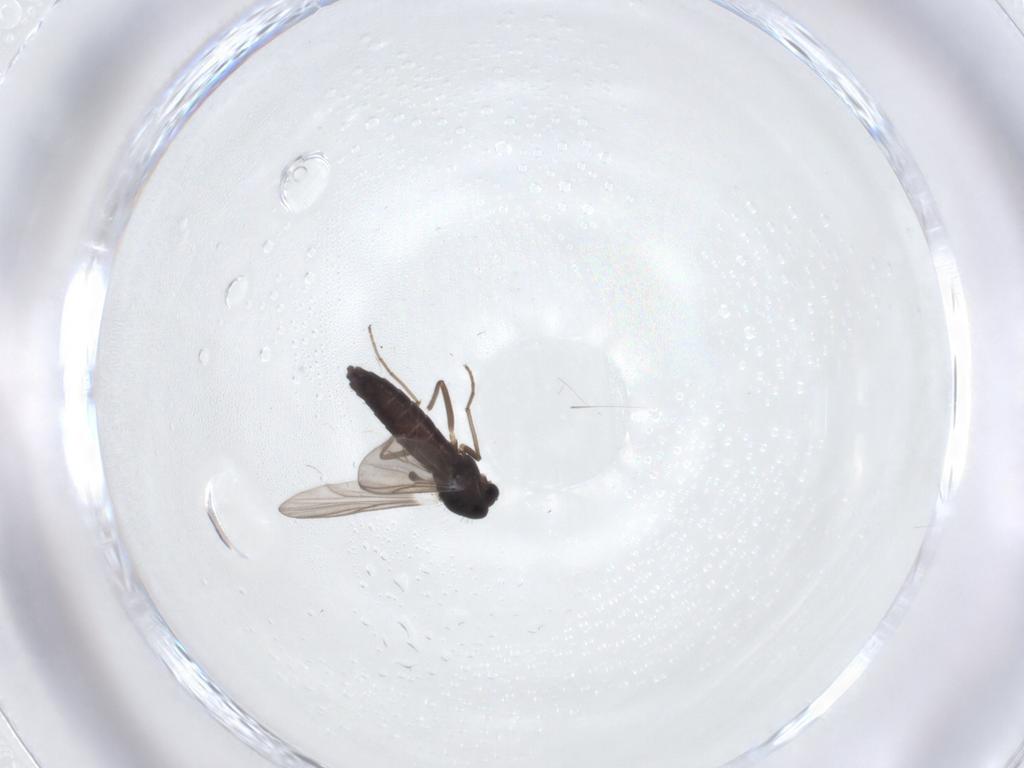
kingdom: Animalia
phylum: Arthropoda
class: Insecta
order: Diptera
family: Chironomidae
